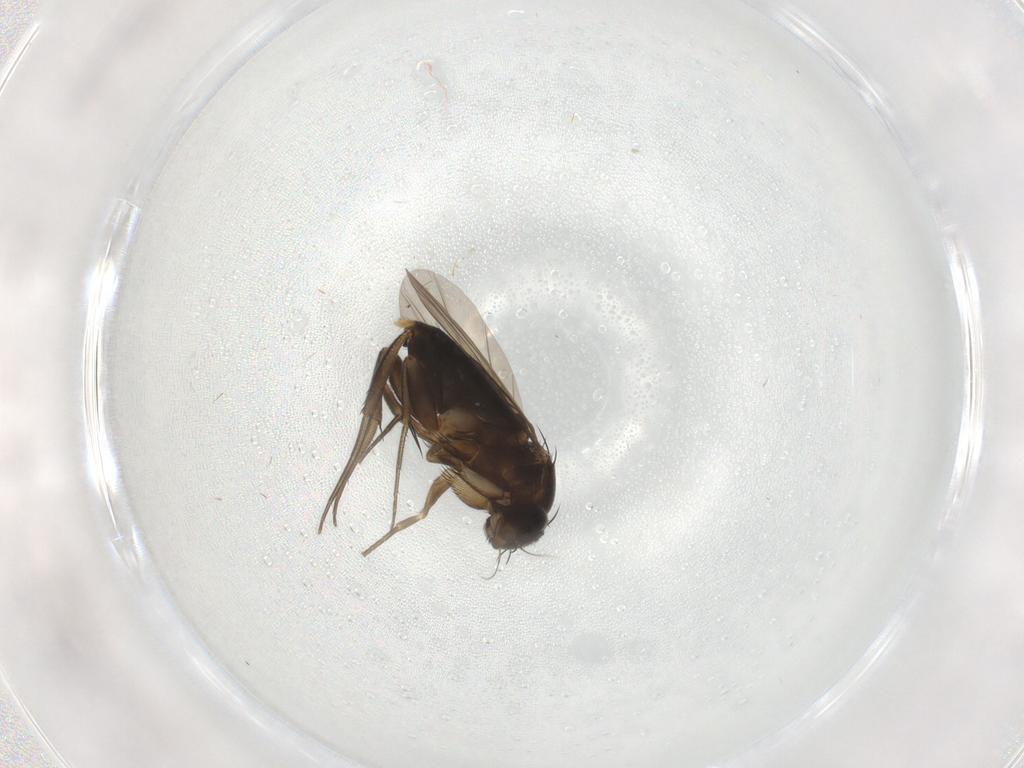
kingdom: Animalia
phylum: Arthropoda
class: Insecta
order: Diptera
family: Phoridae
